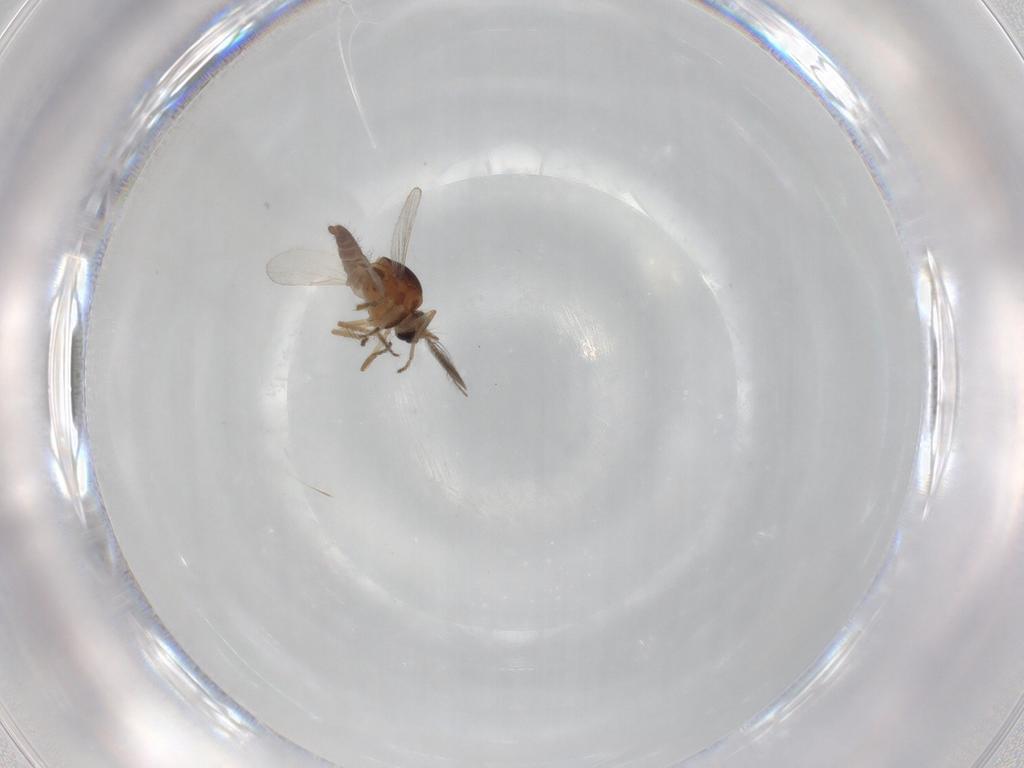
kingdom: Animalia
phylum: Arthropoda
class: Insecta
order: Diptera
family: Ceratopogonidae
